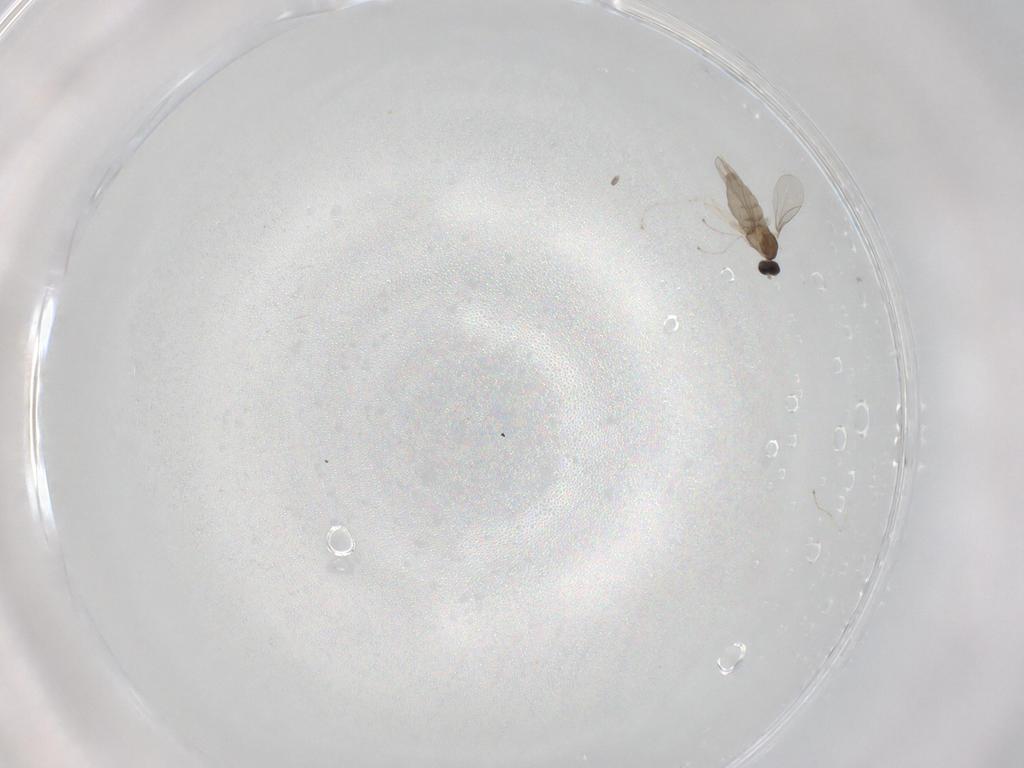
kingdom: Animalia
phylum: Arthropoda
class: Insecta
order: Diptera
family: Cecidomyiidae
